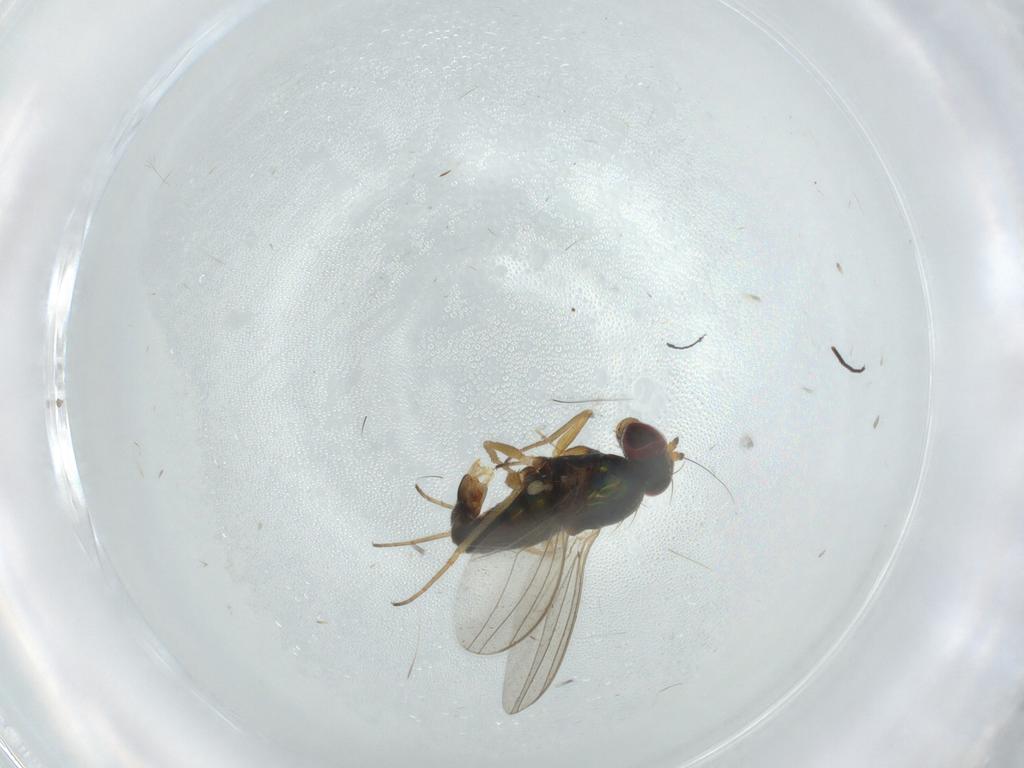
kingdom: Animalia
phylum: Arthropoda
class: Insecta
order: Diptera
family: Dolichopodidae
